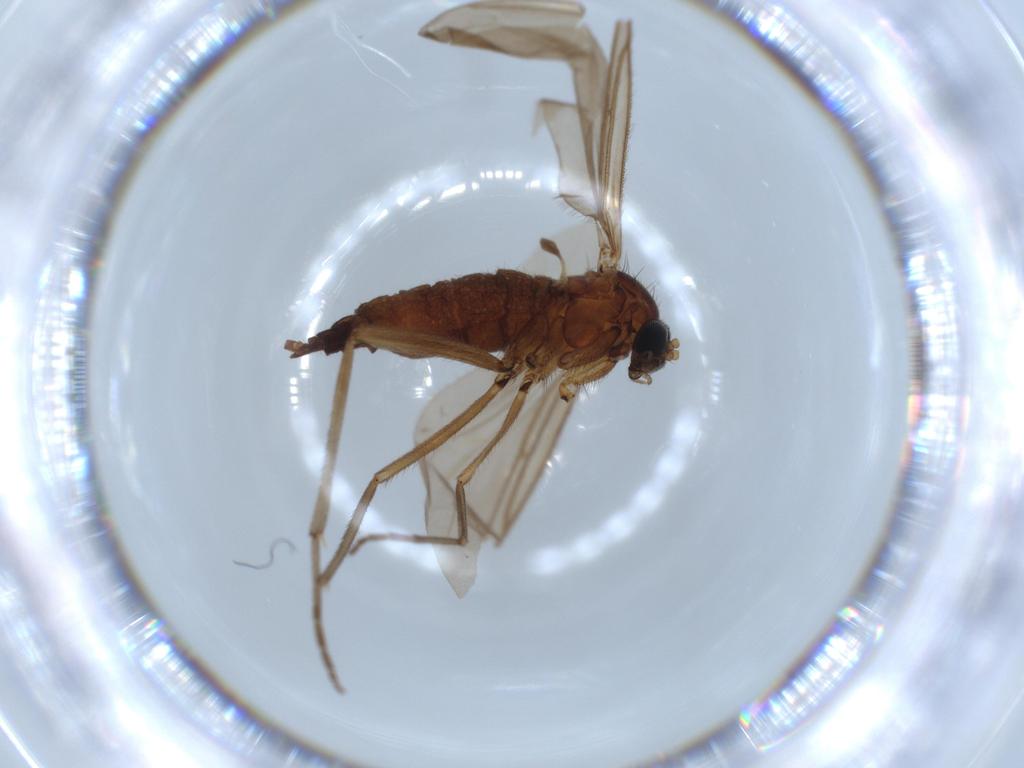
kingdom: Animalia
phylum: Arthropoda
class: Insecta
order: Diptera
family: Sciaridae
